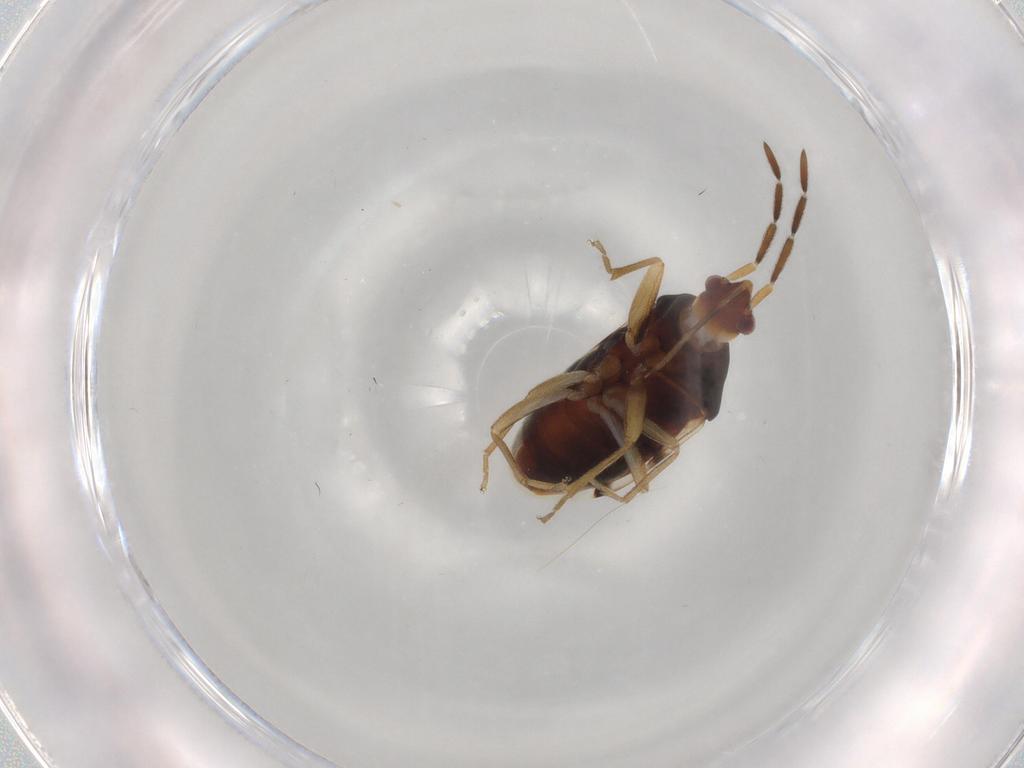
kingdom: Animalia
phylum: Arthropoda
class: Insecta
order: Hemiptera
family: Rhyparochromidae
